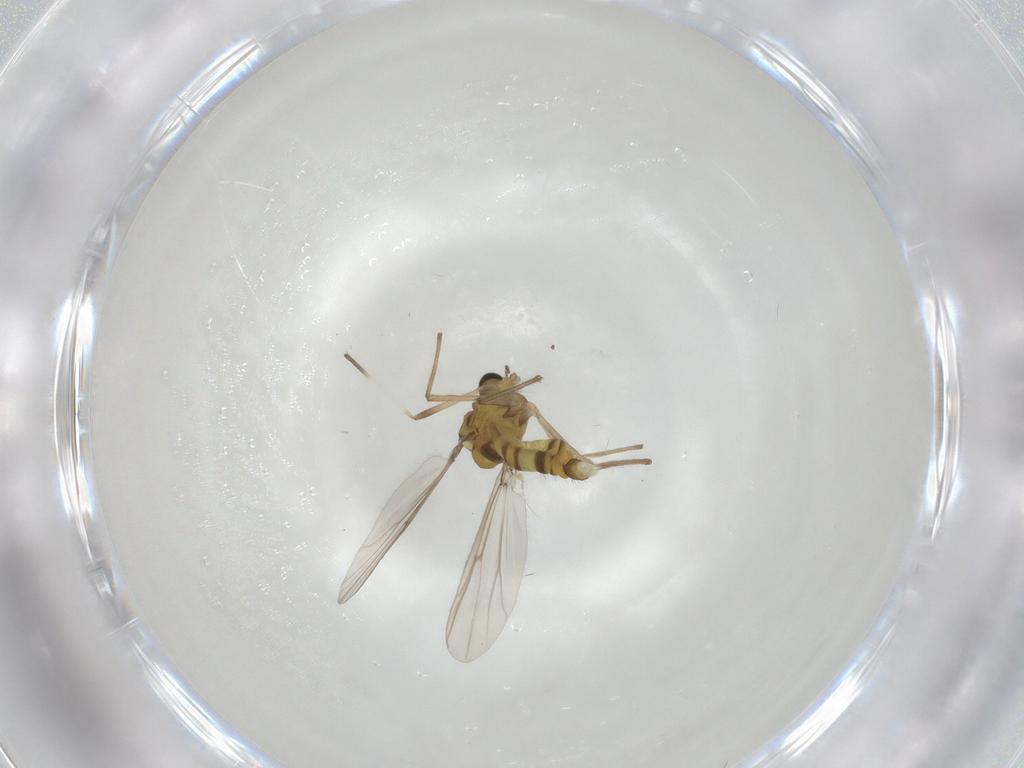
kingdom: Animalia
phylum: Arthropoda
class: Insecta
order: Diptera
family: Chironomidae
